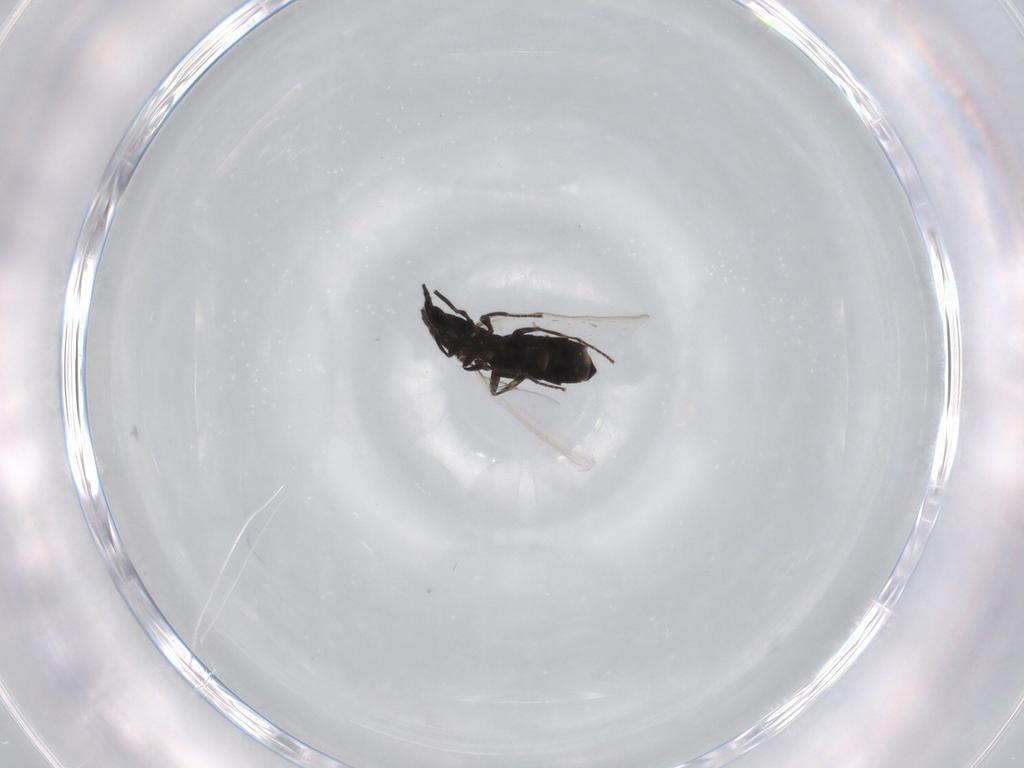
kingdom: Animalia
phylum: Arthropoda
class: Insecta
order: Diptera
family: Scatopsidae
